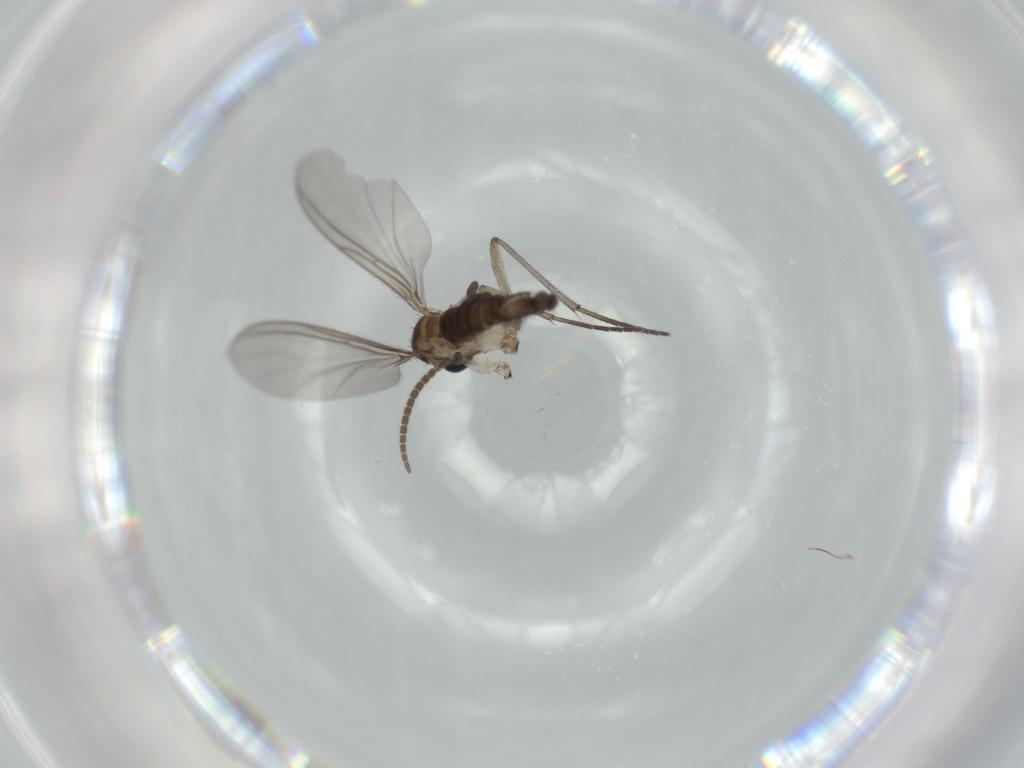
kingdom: Animalia
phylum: Arthropoda
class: Insecta
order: Diptera
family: Sciaridae
